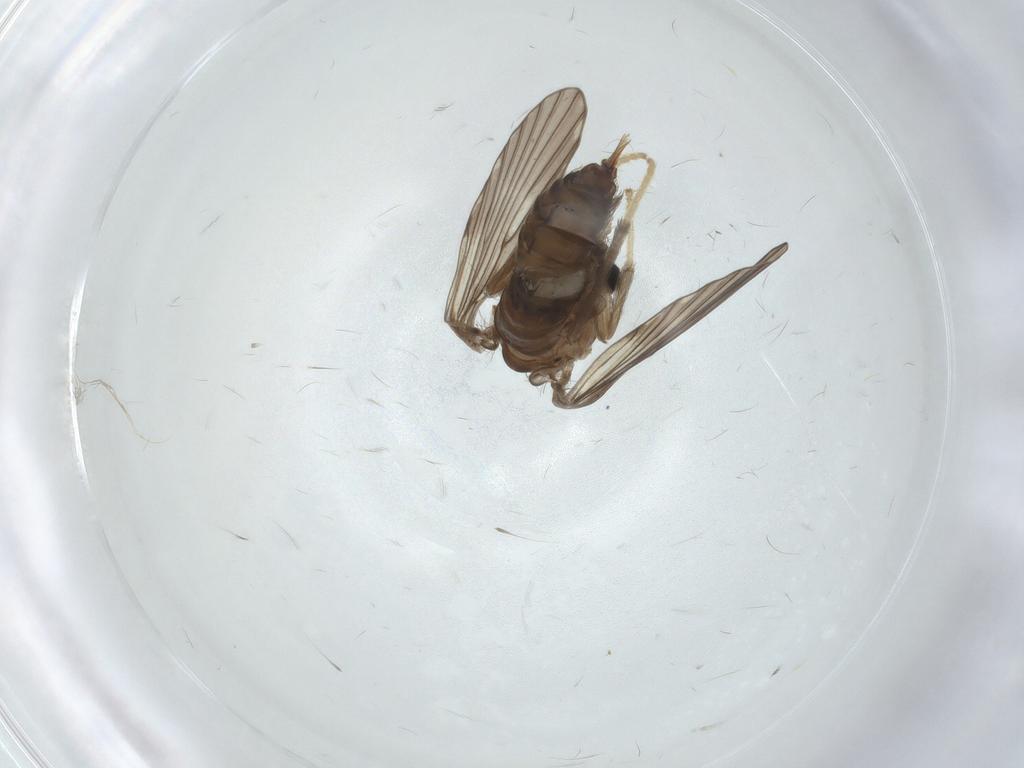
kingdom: Animalia
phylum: Arthropoda
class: Insecta
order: Diptera
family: Psychodidae
